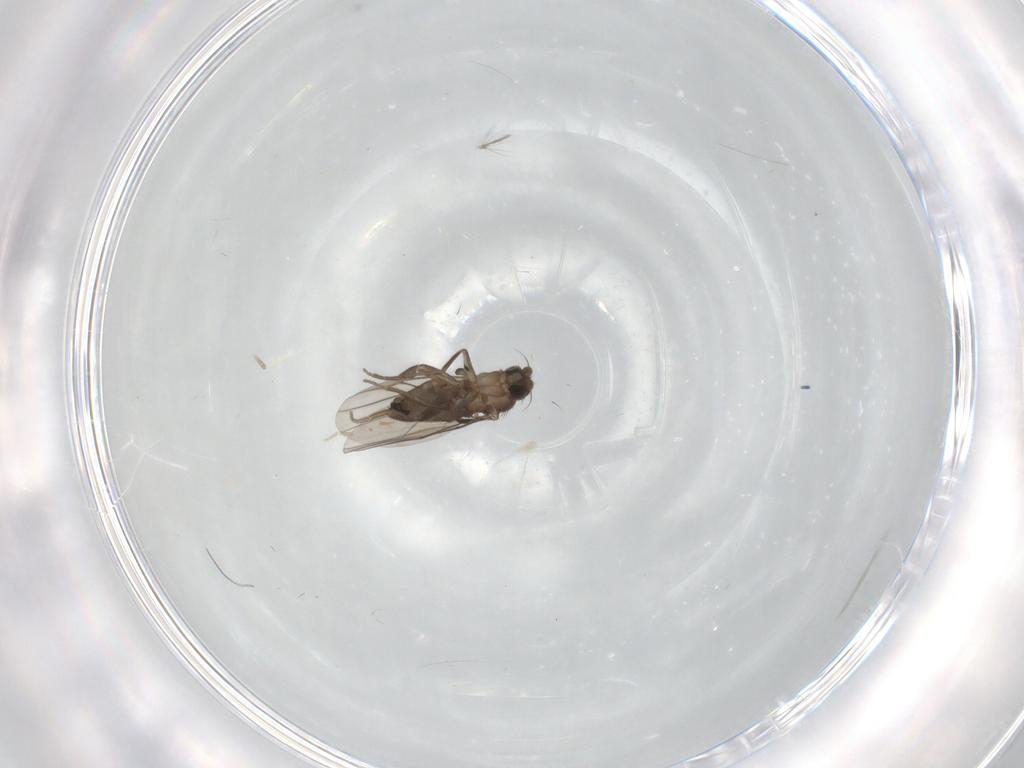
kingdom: Animalia
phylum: Arthropoda
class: Insecta
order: Diptera
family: Phoridae
